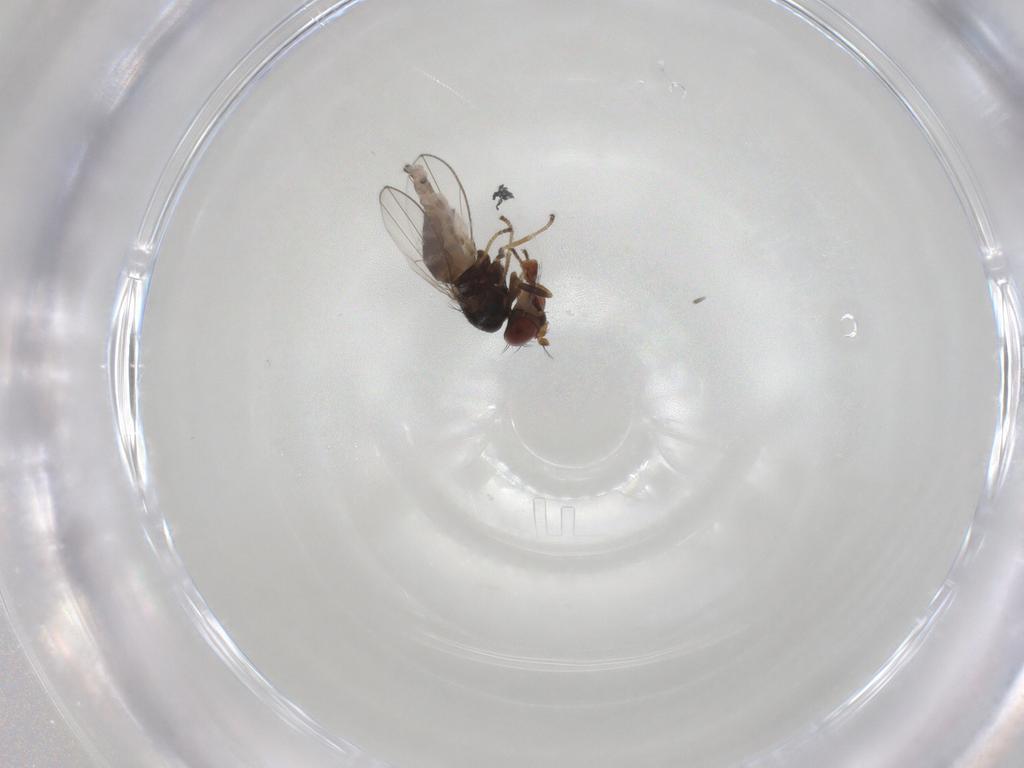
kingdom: Animalia
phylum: Arthropoda
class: Insecta
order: Diptera
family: Ephydridae
